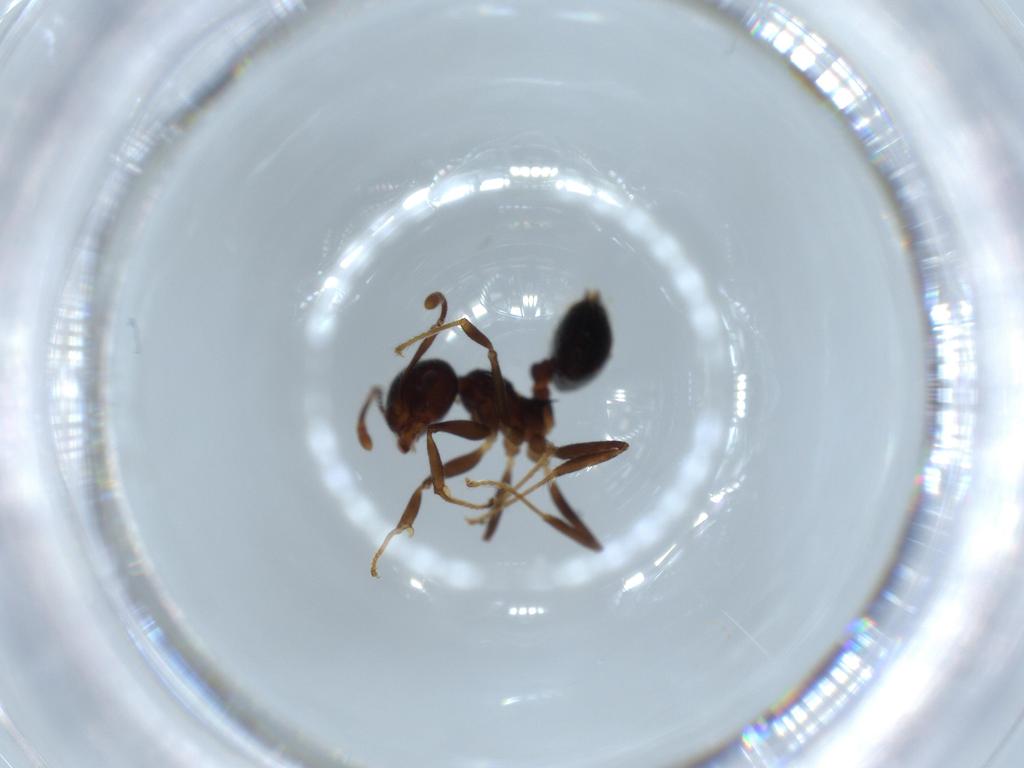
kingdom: Animalia
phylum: Arthropoda
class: Insecta
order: Hymenoptera
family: Formicidae
